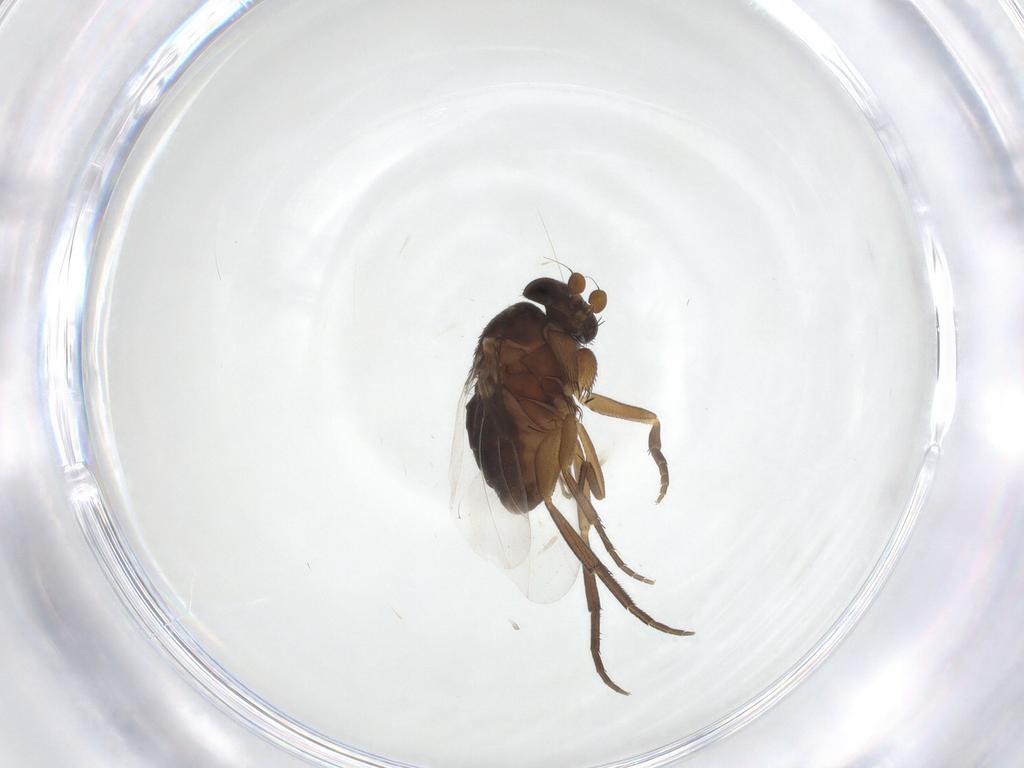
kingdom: Animalia
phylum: Arthropoda
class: Insecta
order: Diptera
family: Phoridae
